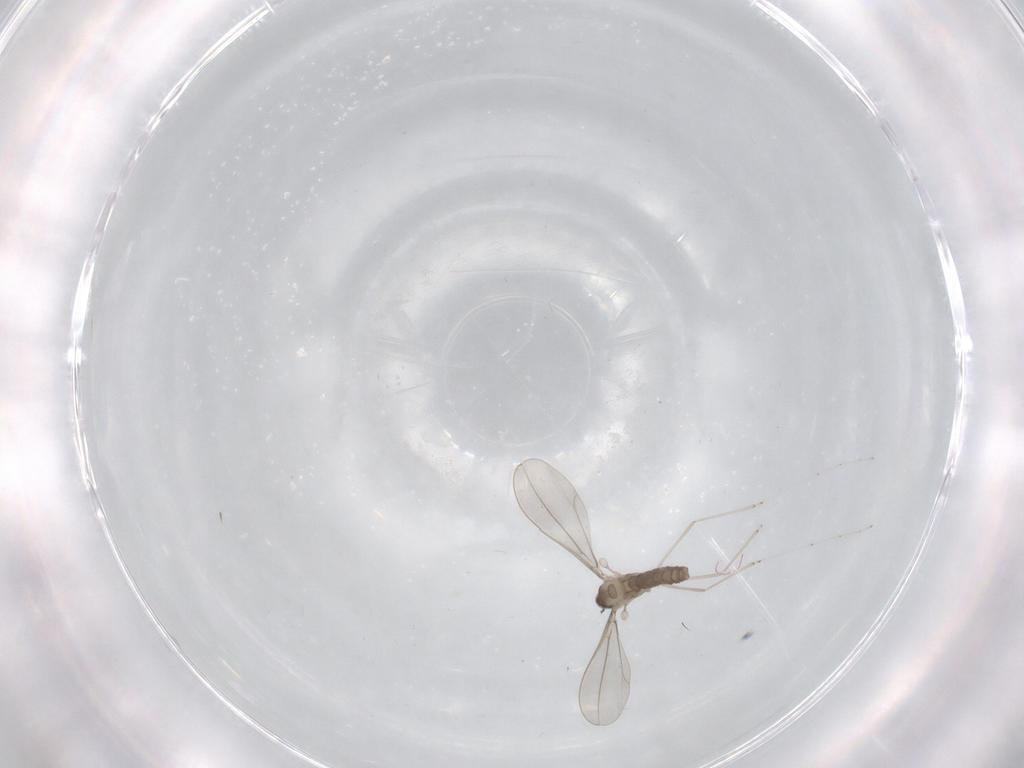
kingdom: Animalia
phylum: Arthropoda
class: Insecta
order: Diptera
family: Cecidomyiidae
